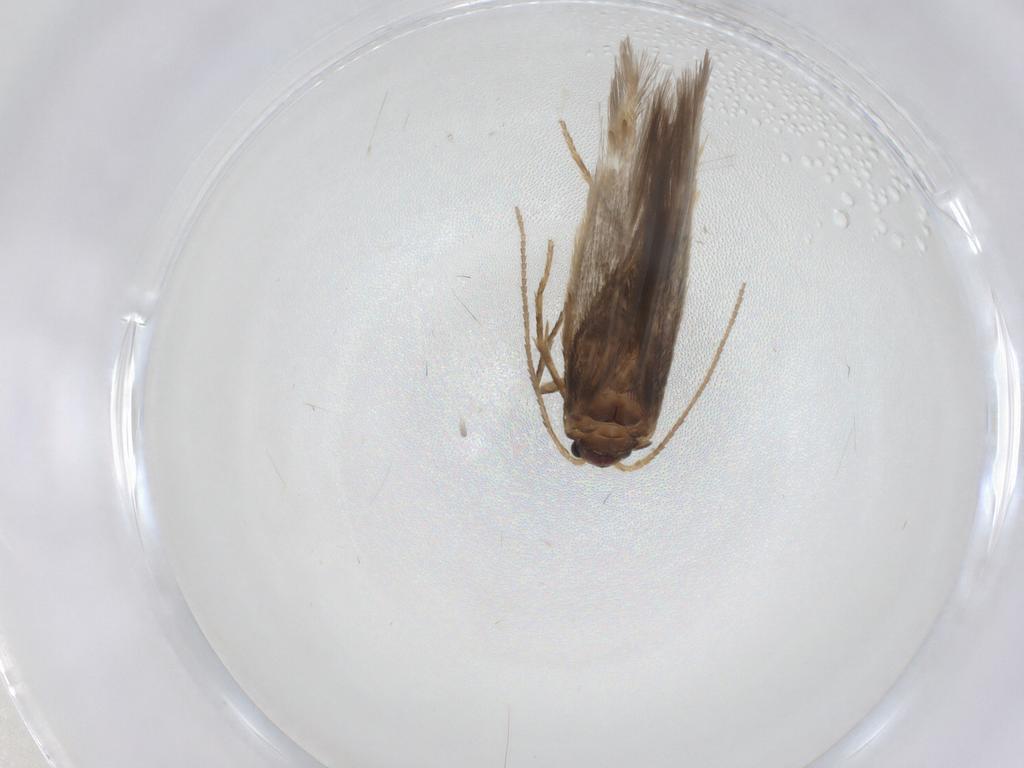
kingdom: Animalia
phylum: Arthropoda
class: Insecta
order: Lepidoptera
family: Nepticulidae
